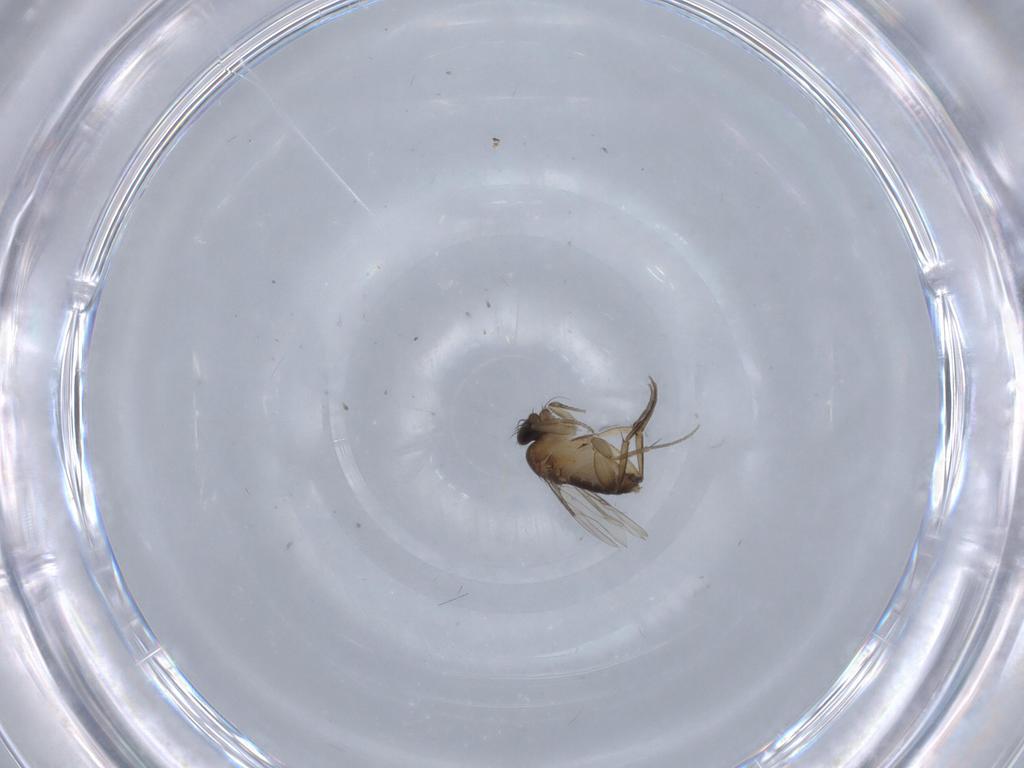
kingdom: Animalia
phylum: Arthropoda
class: Insecta
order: Diptera
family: Phoridae
